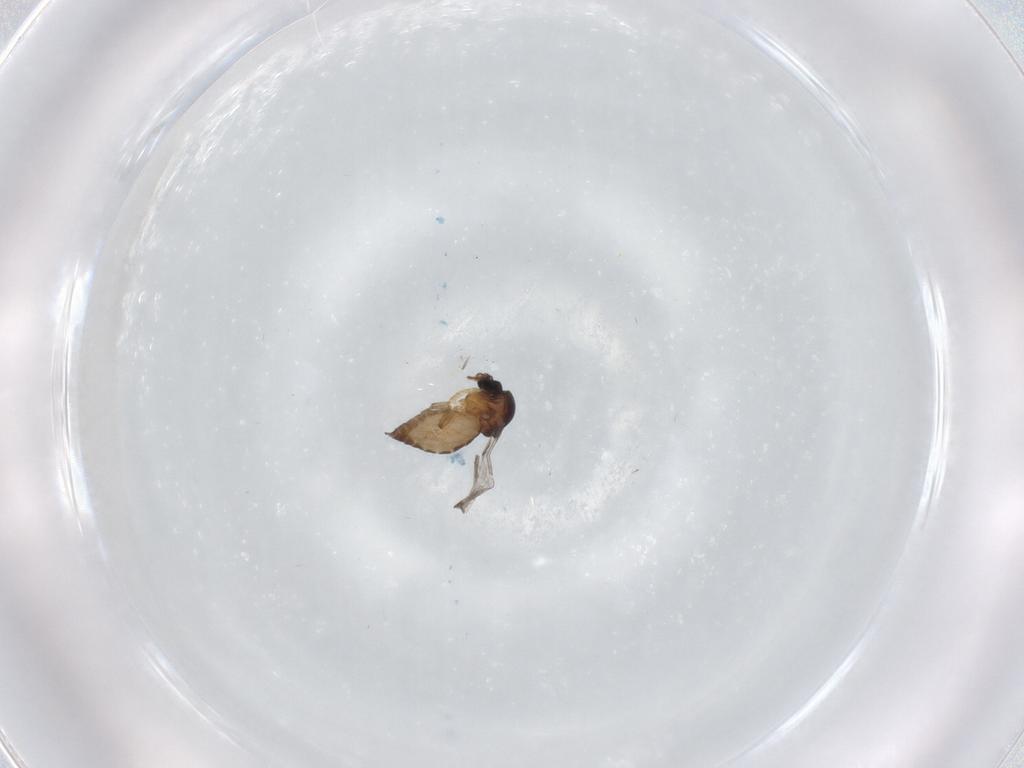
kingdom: Animalia
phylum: Arthropoda
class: Insecta
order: Diptera
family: Ceratopogonidae
